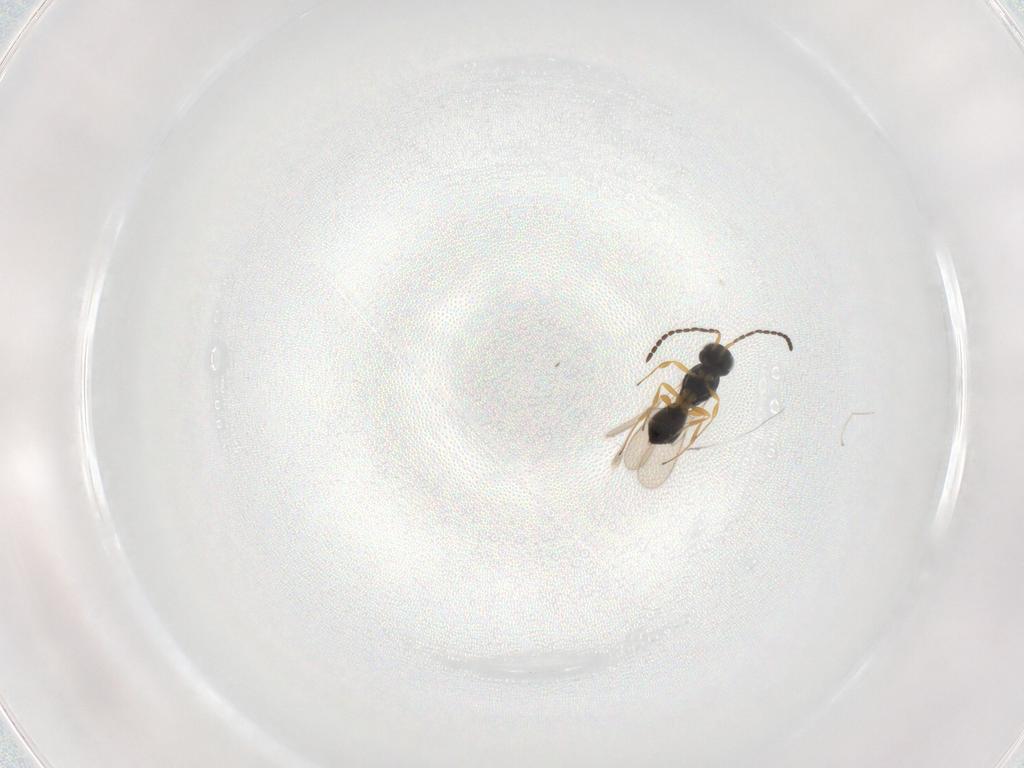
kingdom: Animalia
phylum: Arthropoda
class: Insecta
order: Hymenoptera
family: Scelionidae
